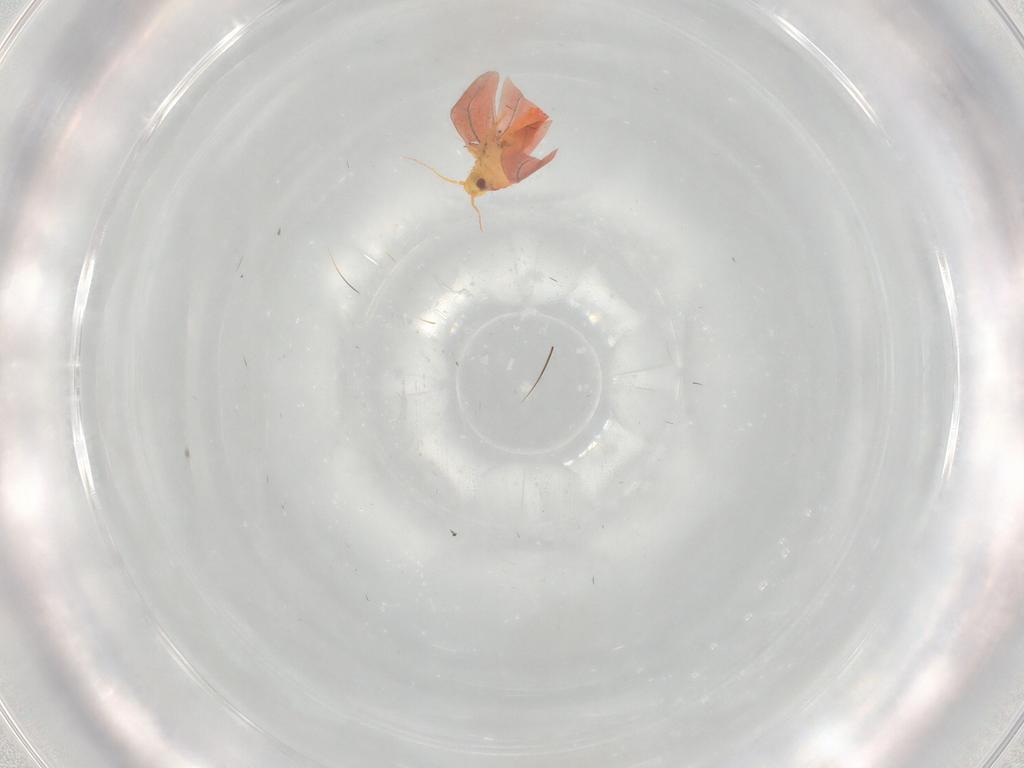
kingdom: Animalia
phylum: Arthropoda
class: Insecta
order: Hemiptera
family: Aleyrodidae
